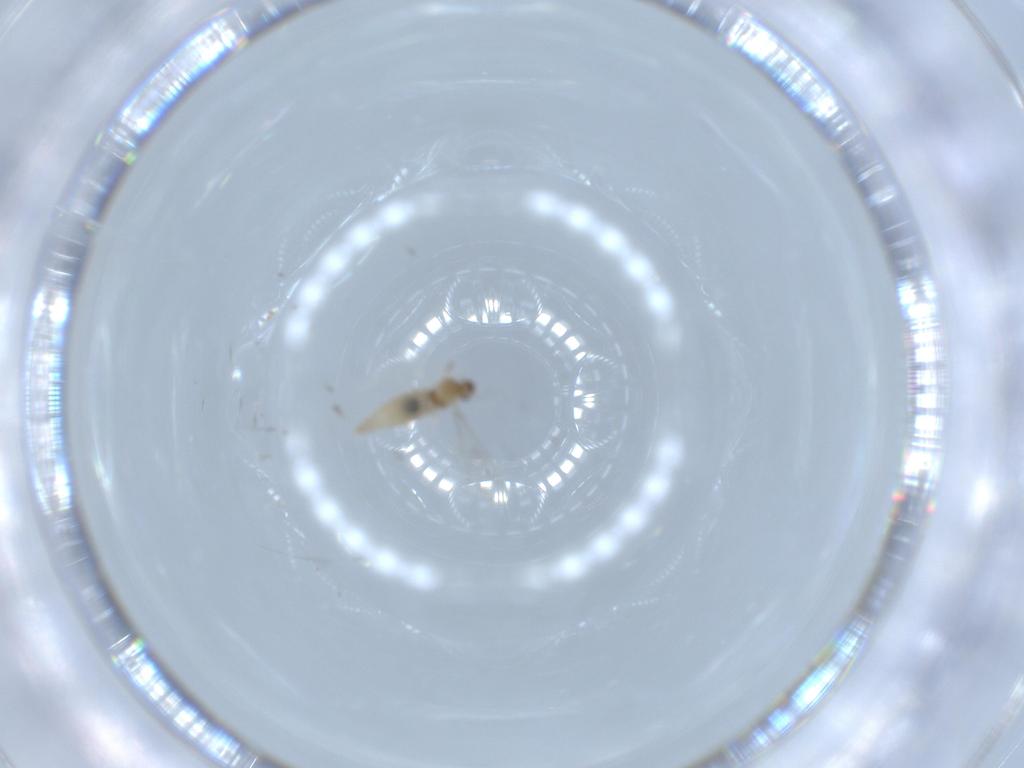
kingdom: Animalia
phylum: Arthropoda
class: Insecta
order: Diptera
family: Cecidomyiidae
